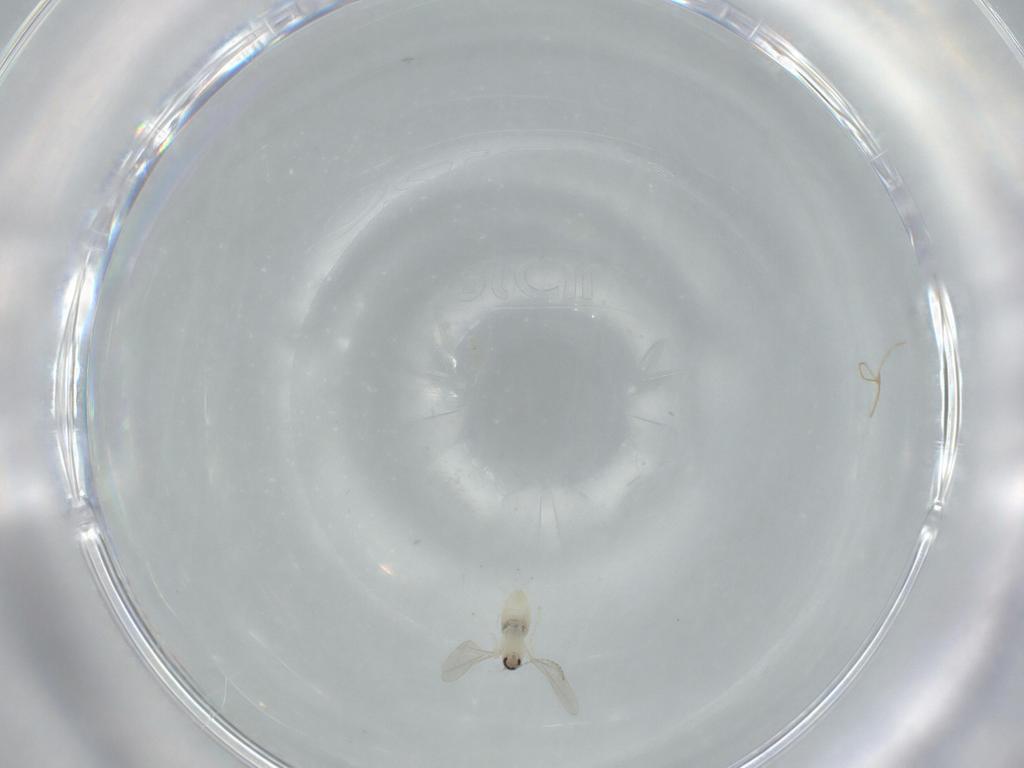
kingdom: Animalia
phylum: Arthropoda
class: Insecta
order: Diptera
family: Cecidomyiidae
